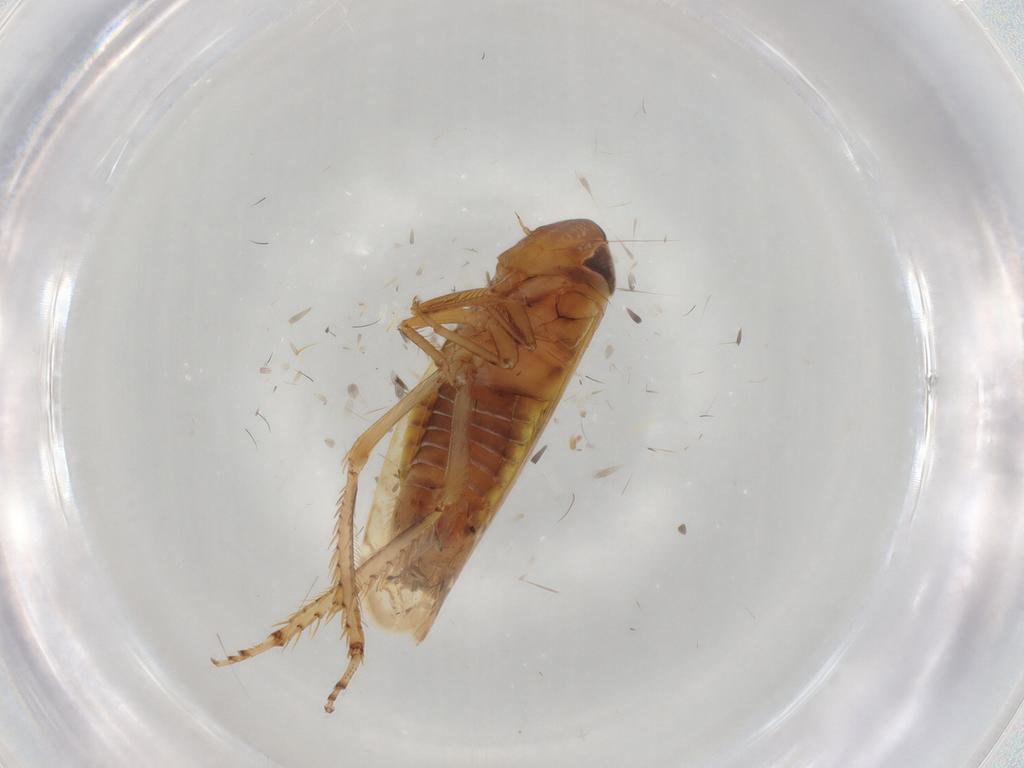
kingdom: Animalia
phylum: Arthropoda
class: Insecta
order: Hemiptera
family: Cicadellidae
